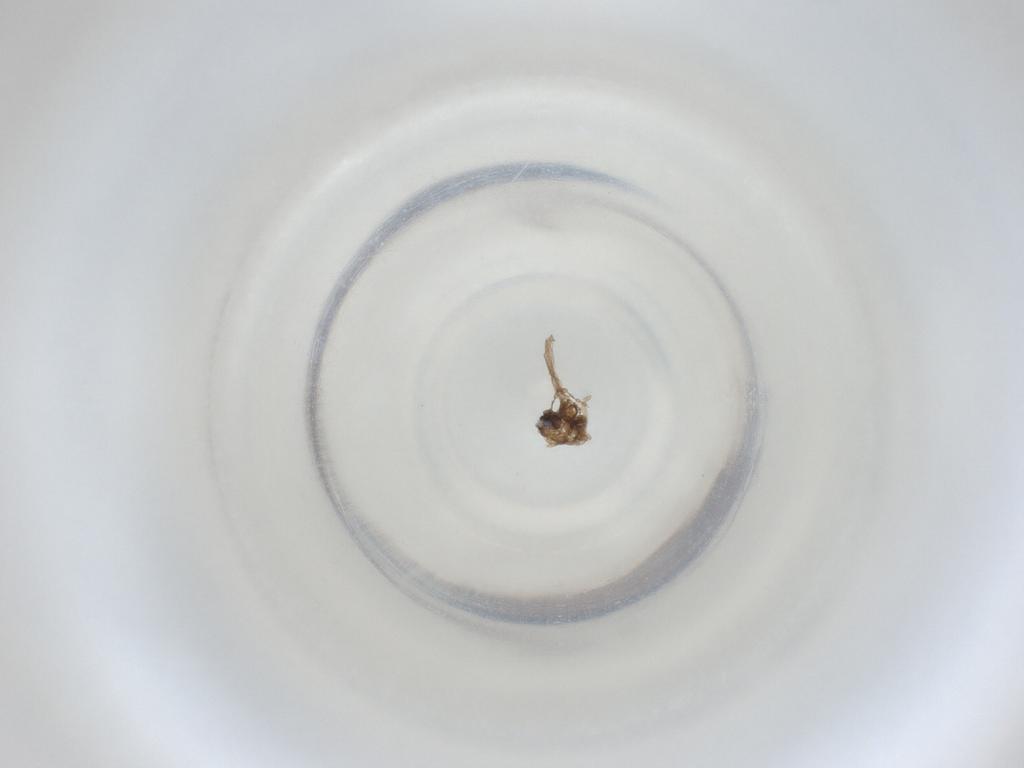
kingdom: Animalia
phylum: Arthropoda
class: Insecta
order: Diptera
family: Cecidomyiidae
